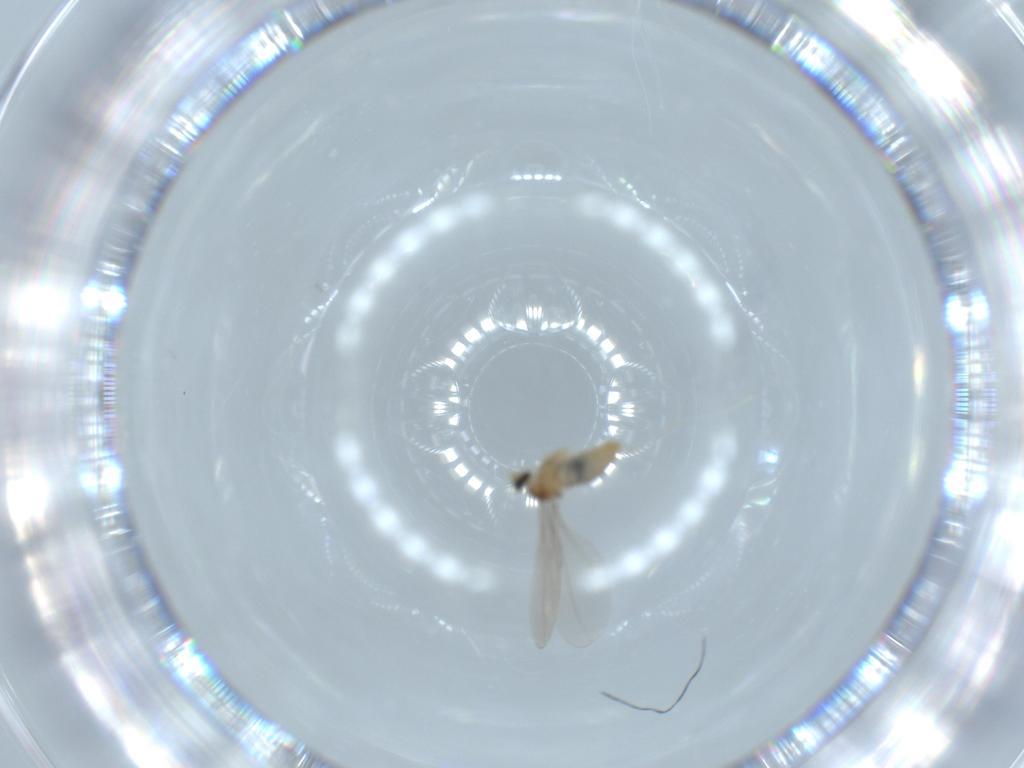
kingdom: Animalia
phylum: Arthropoda
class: Insecta
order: Diptera
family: Cecidomyiidae
